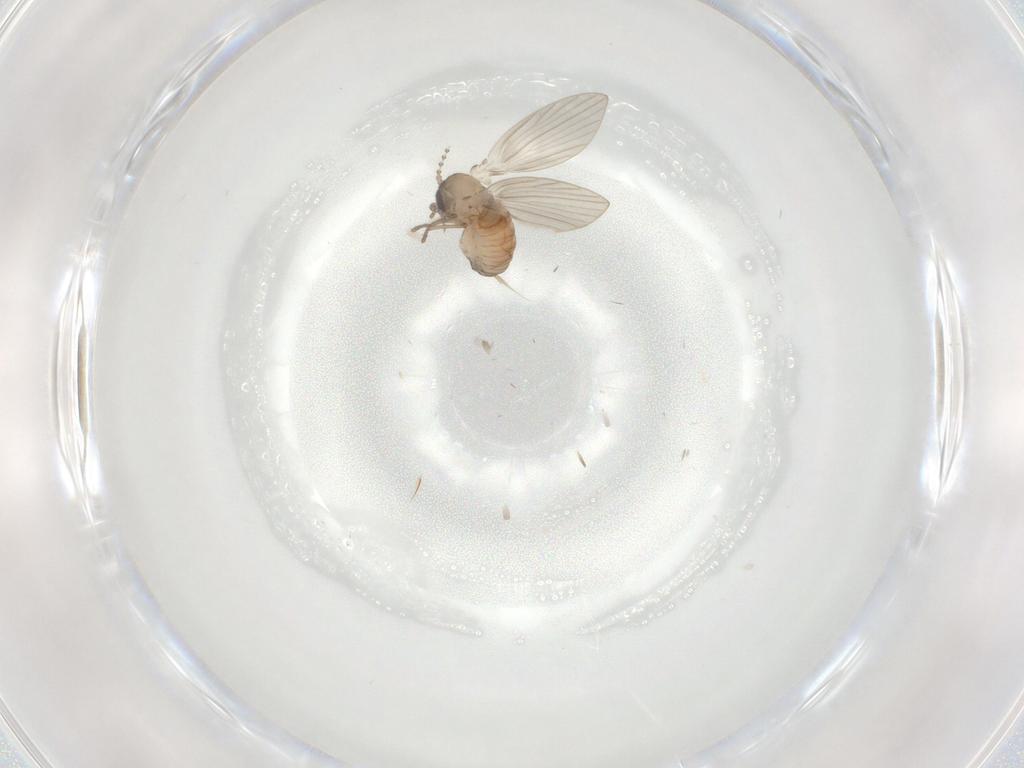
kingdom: Animalia
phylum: Arthropoda
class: Insecta
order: Diptera
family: Psychodidae
